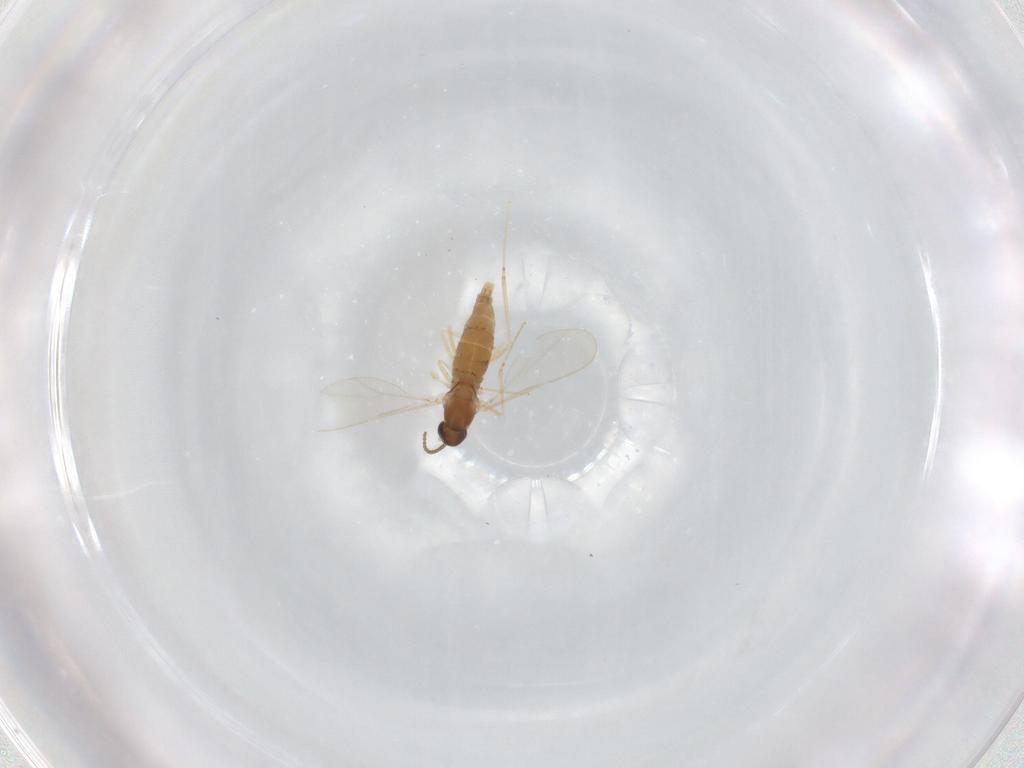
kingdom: Animalia
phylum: Arthropoda
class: Insecta
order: Diptera
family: Cecidomyiidae
